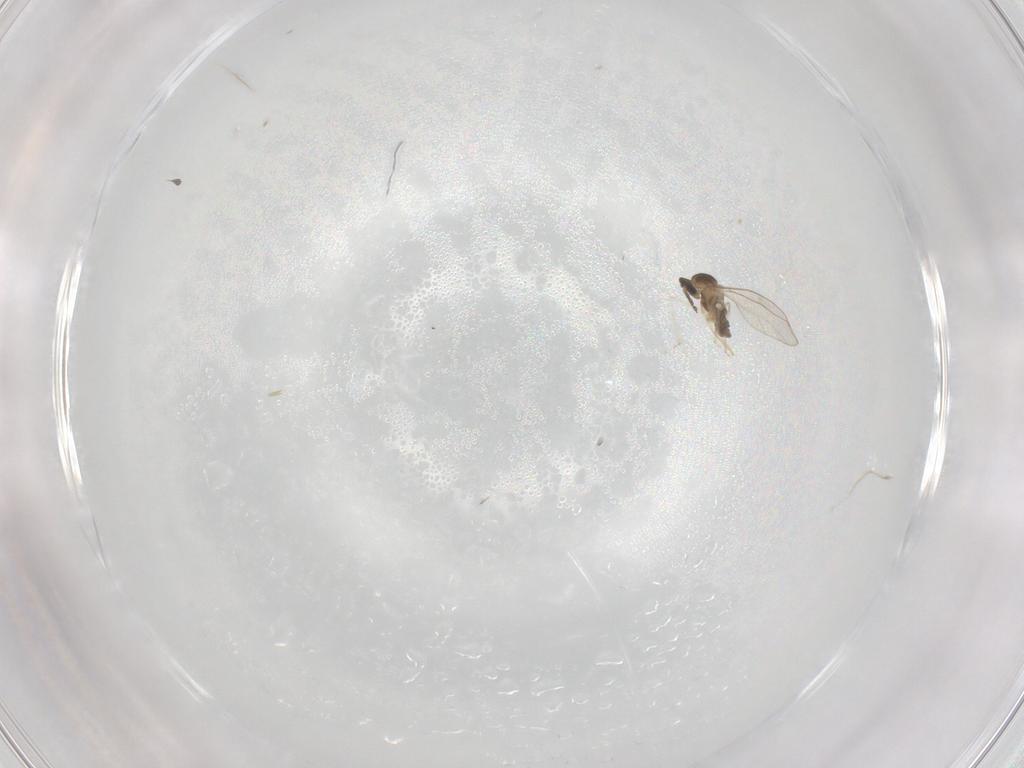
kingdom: Animalia
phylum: Arthropoda
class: Insecta
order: Diptera
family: Cecidomyiidae
